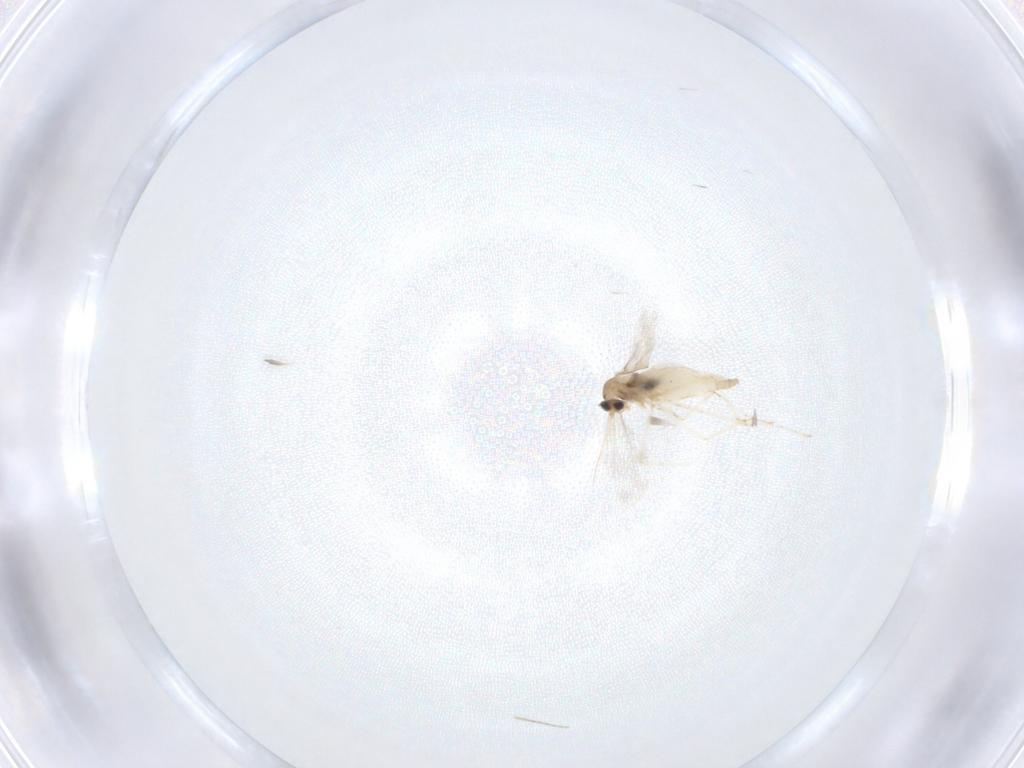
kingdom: Animalia
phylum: Arthropoda
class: Insecta
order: Diptera
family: Cecidomyiidae
